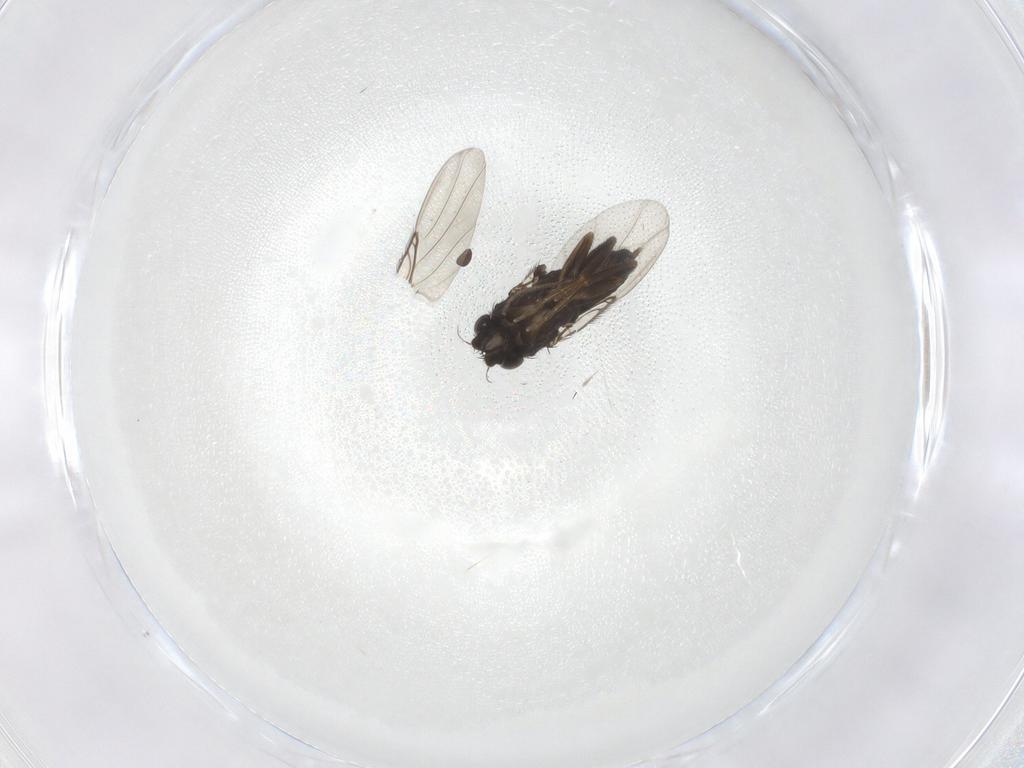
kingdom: Animalia
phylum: Arthropoda
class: Insecta
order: Diptera
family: Phoridae
